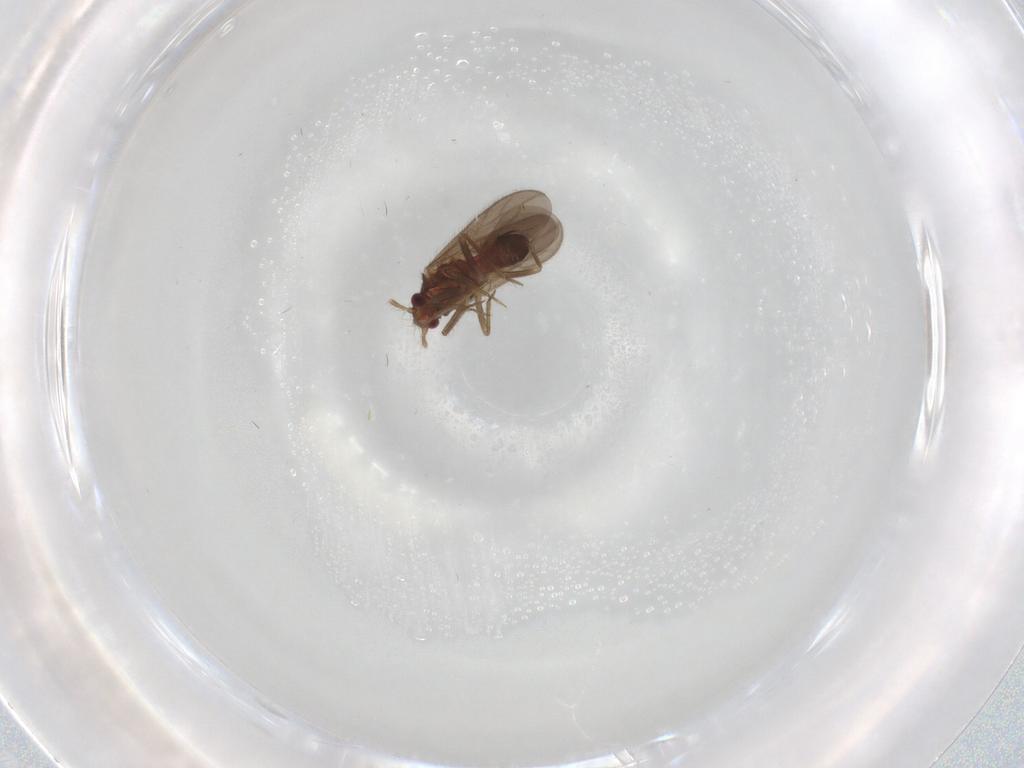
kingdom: Animalia
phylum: Arthropoda
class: Insecta
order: Hemiptera
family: Ceratocombidae
